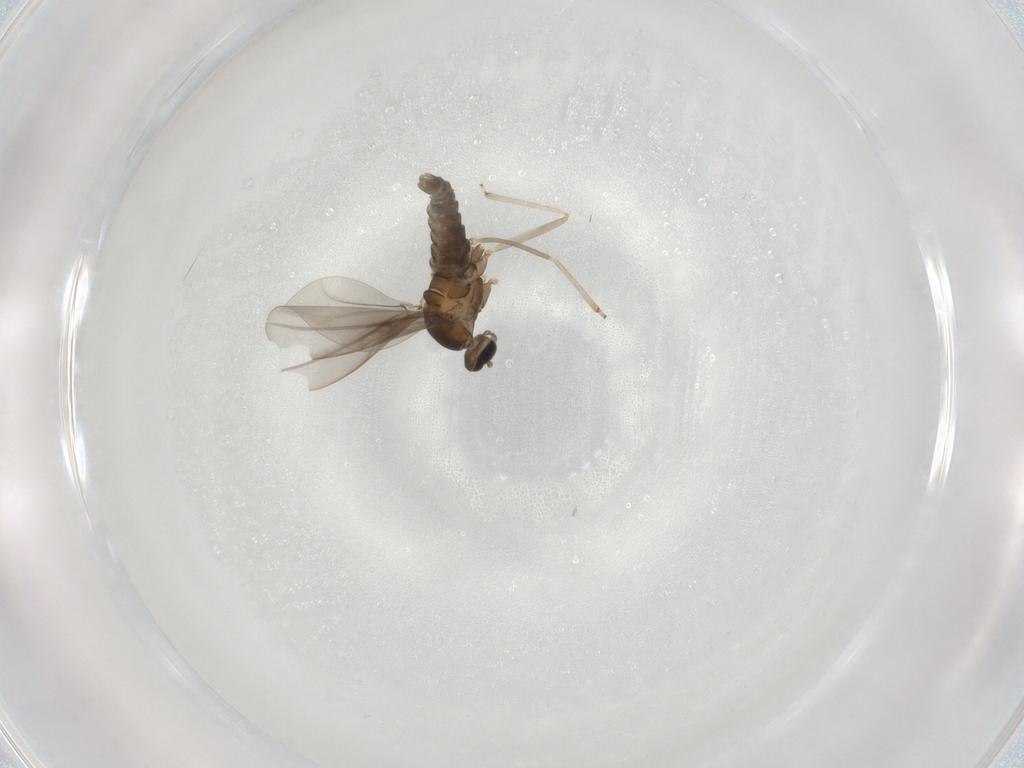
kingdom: Animalia
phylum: Arthropoda
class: Insecta
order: Diptera
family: Cecidomyiidae
